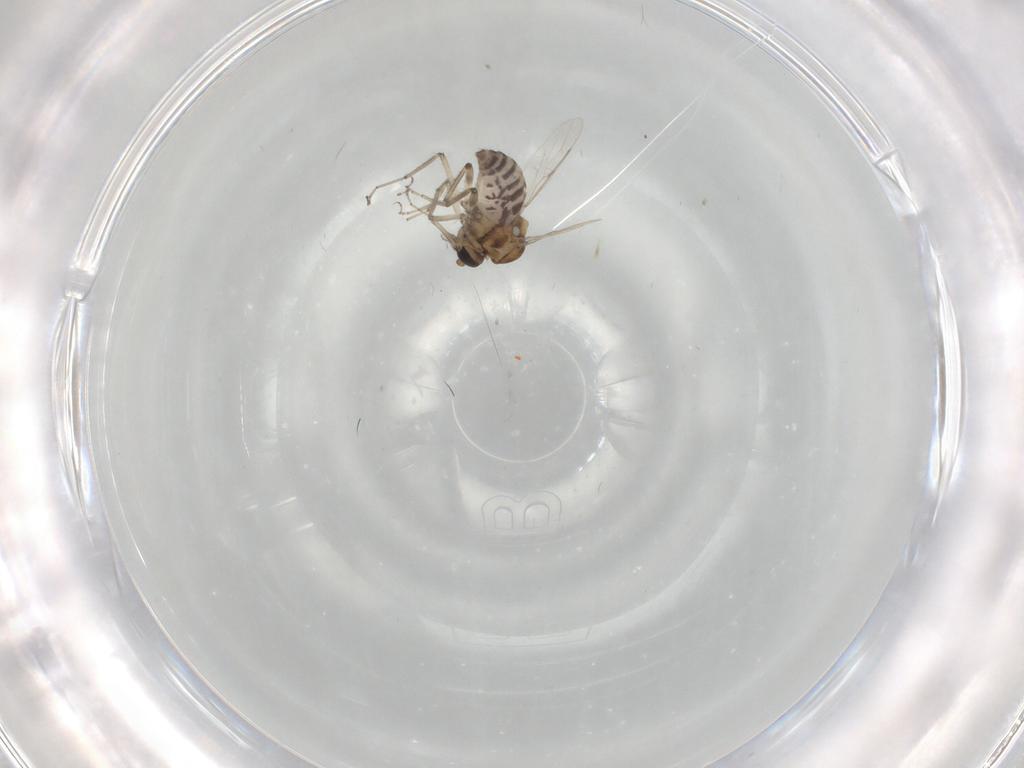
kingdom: Animalia
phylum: Arthropoda
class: Insecta
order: Diptera
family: Ceratopogonidae
